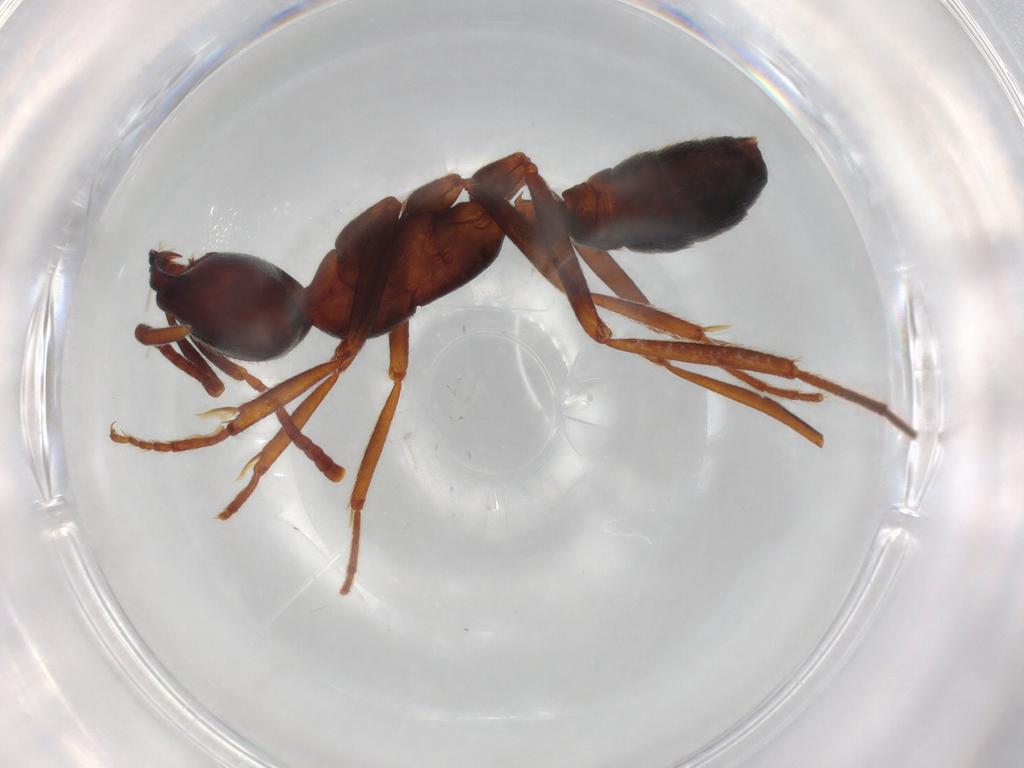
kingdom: Animalia
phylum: Arthropoda
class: Insecta
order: Hymenoptera
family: Formicidae
